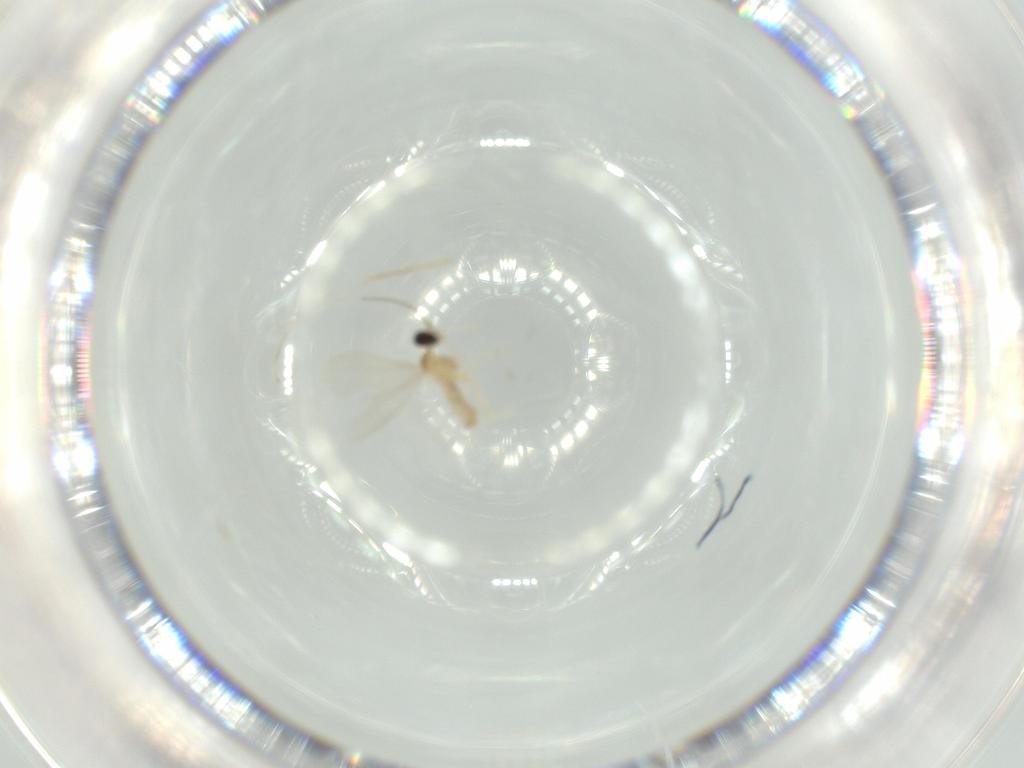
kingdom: Animalia
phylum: Arthropoda
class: Insecta
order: Diptera
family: Cecidomyiidae
